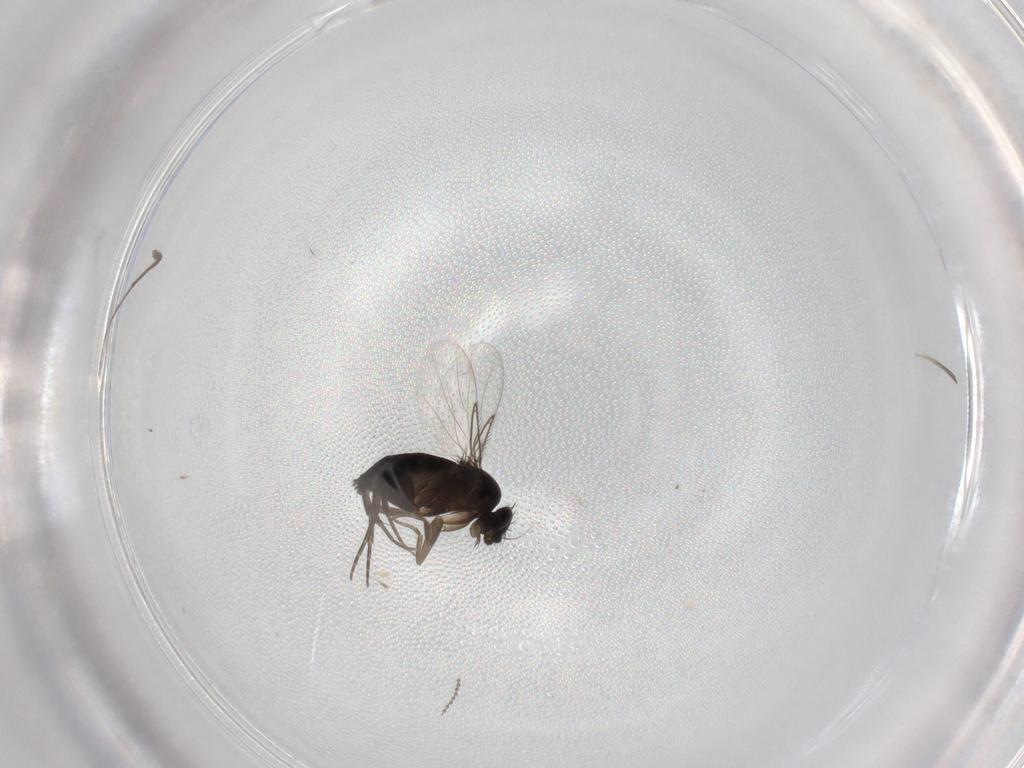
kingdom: Animalia
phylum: Arthropoda
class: Insecta
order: Diptera
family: Phoridae
